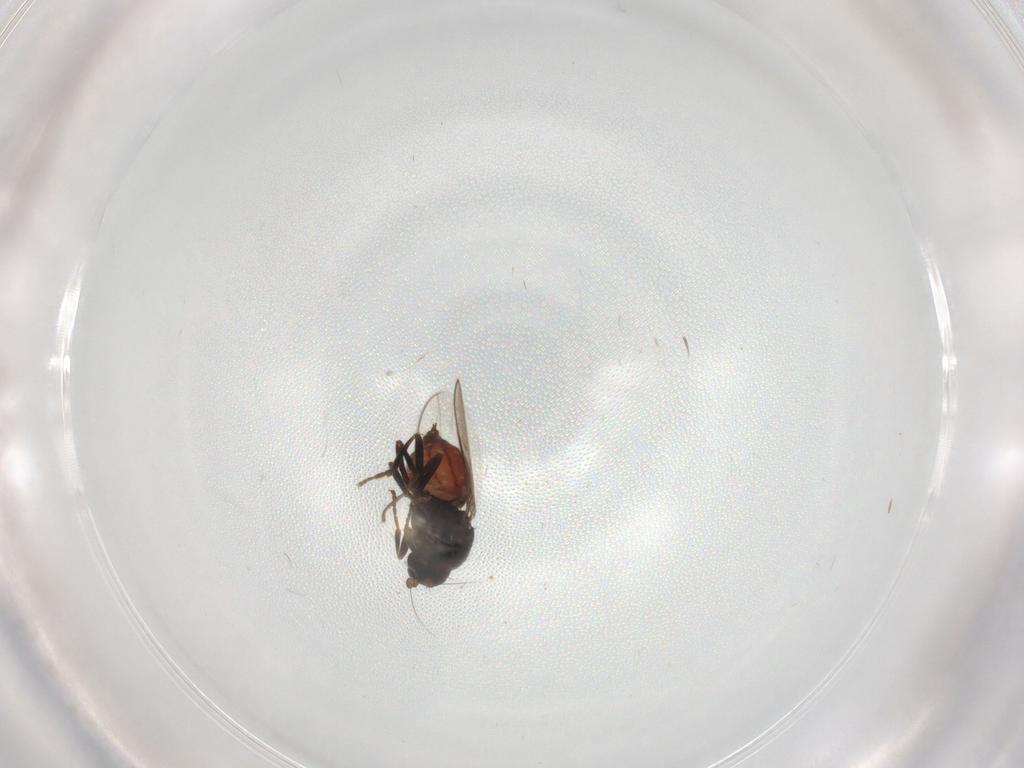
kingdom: Animalia
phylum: Arthropoda
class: Insecta
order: Diptera
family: Sphaeroceridae
